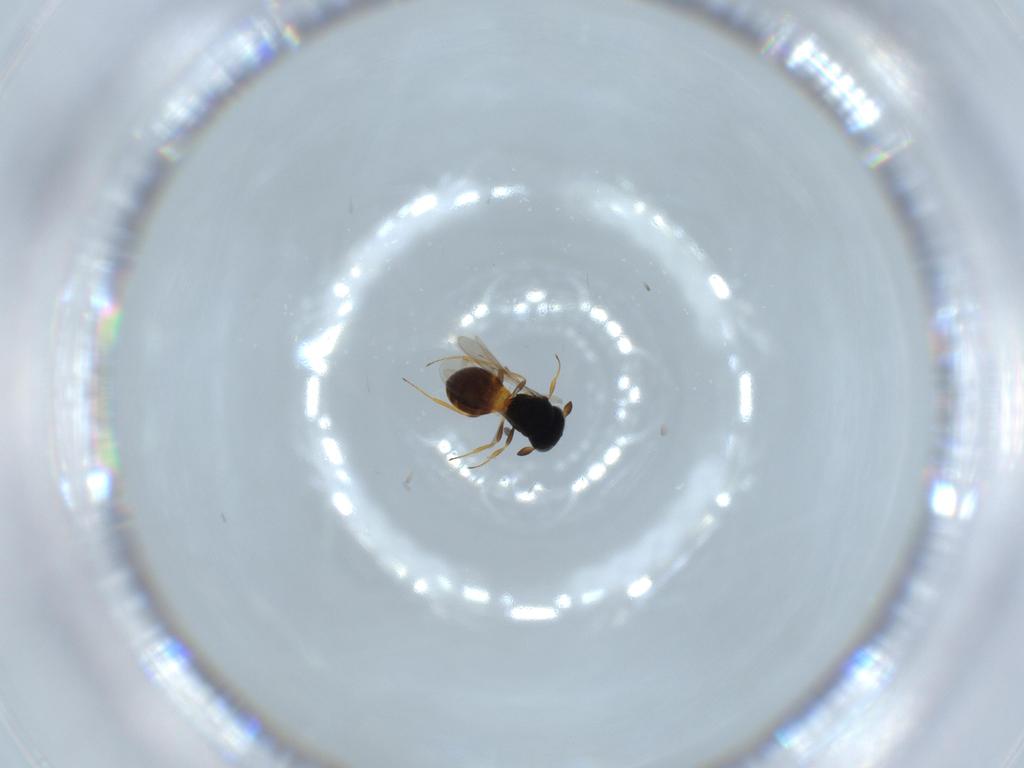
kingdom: Animalia
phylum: Arthropoda
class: Insecta
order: Hymenoptera
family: Scelionidae
